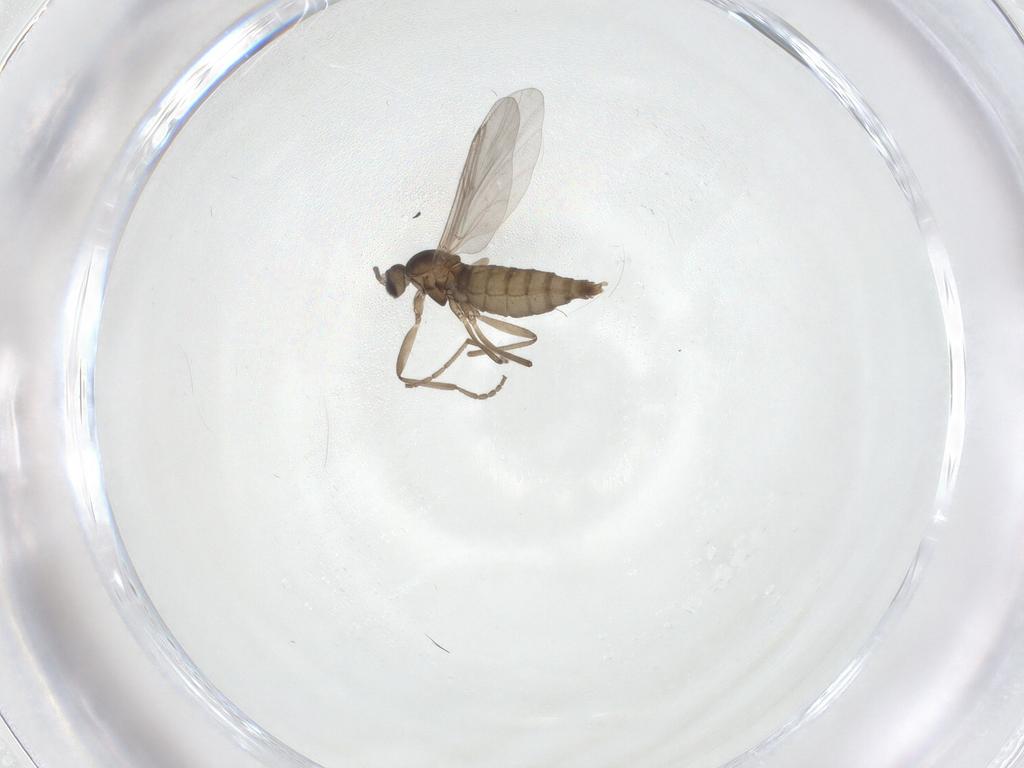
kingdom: Animalia
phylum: Arthropoda
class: Insecta
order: Diptera
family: Cecidomyiidae
